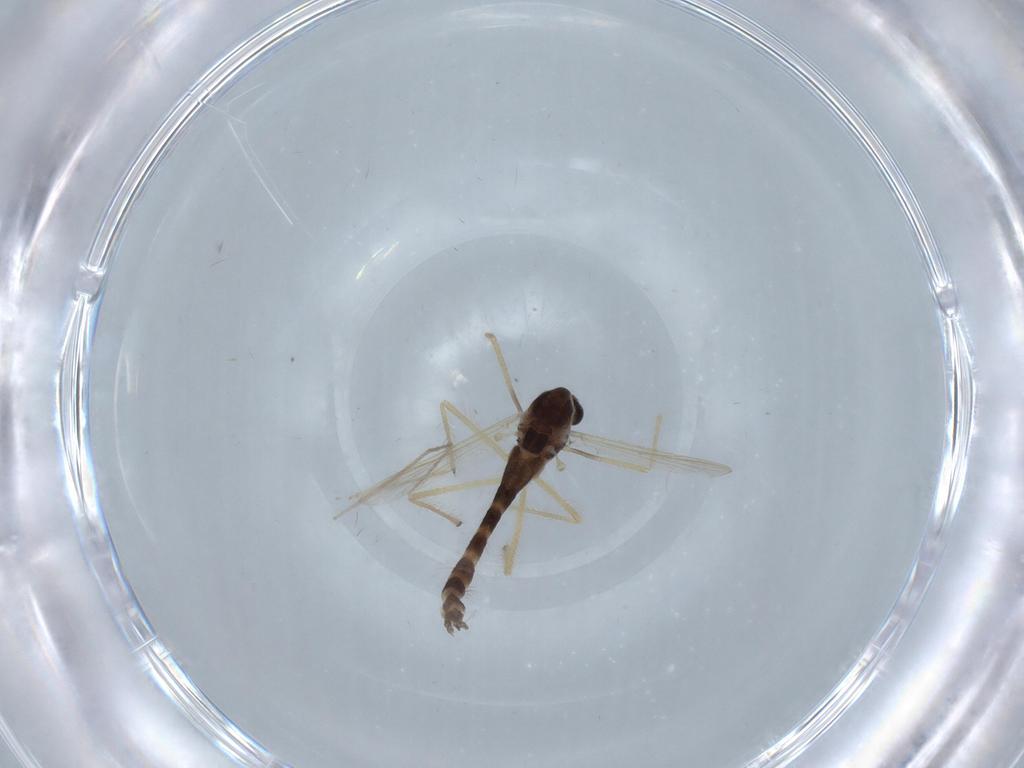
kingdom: Animalia
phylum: Arthropoda
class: Insecta
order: Diptera
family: Chironomidae
